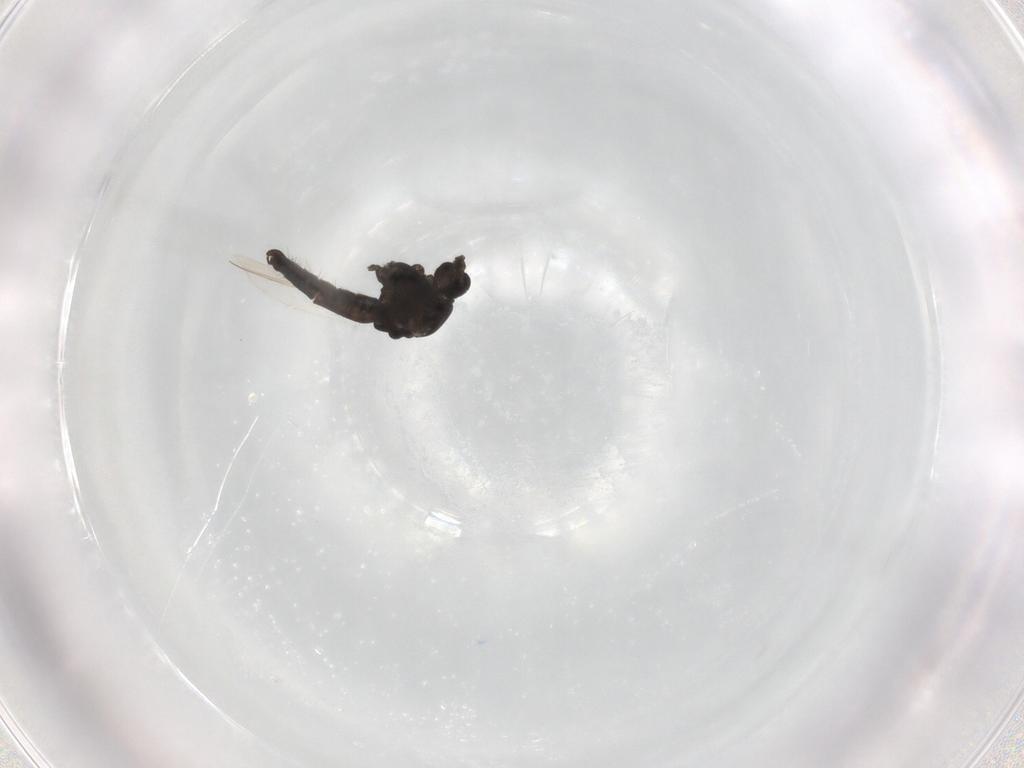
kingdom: Animalia
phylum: Arthropoda
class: Insecta
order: Diptera
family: Chironomidae
